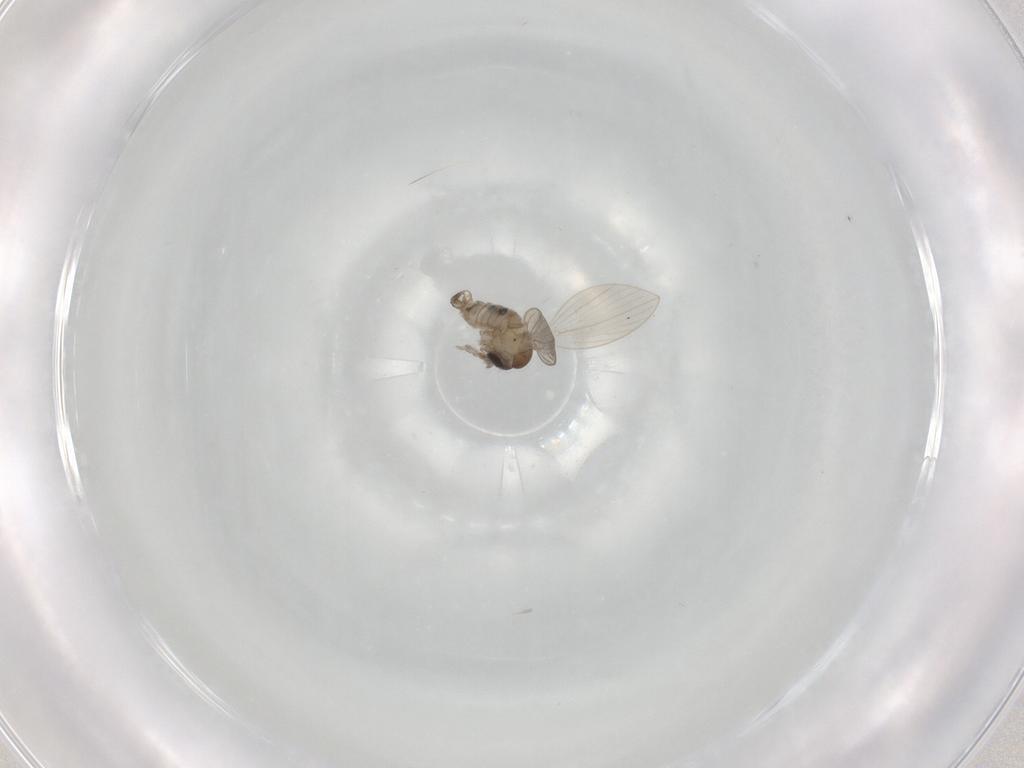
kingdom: Animalia
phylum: Arthropoda
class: Insecta
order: Diptera
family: Psychodidae
